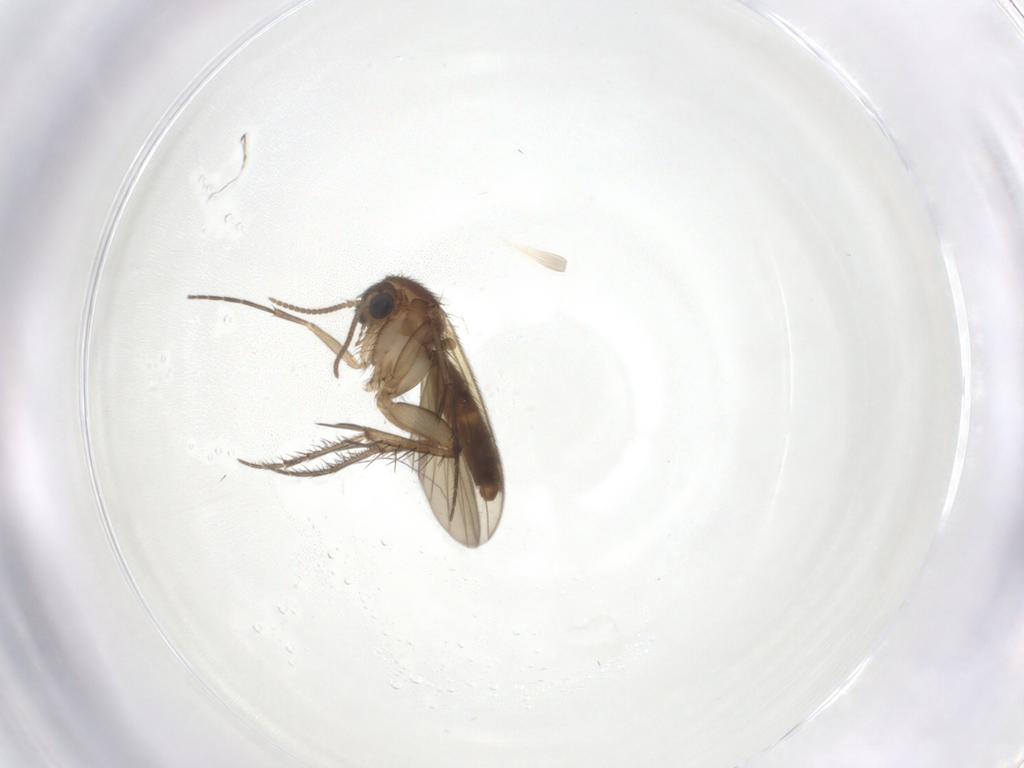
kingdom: Animalia
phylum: Arthropoda
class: Insecta
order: Diptera
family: Mycetophilidae
